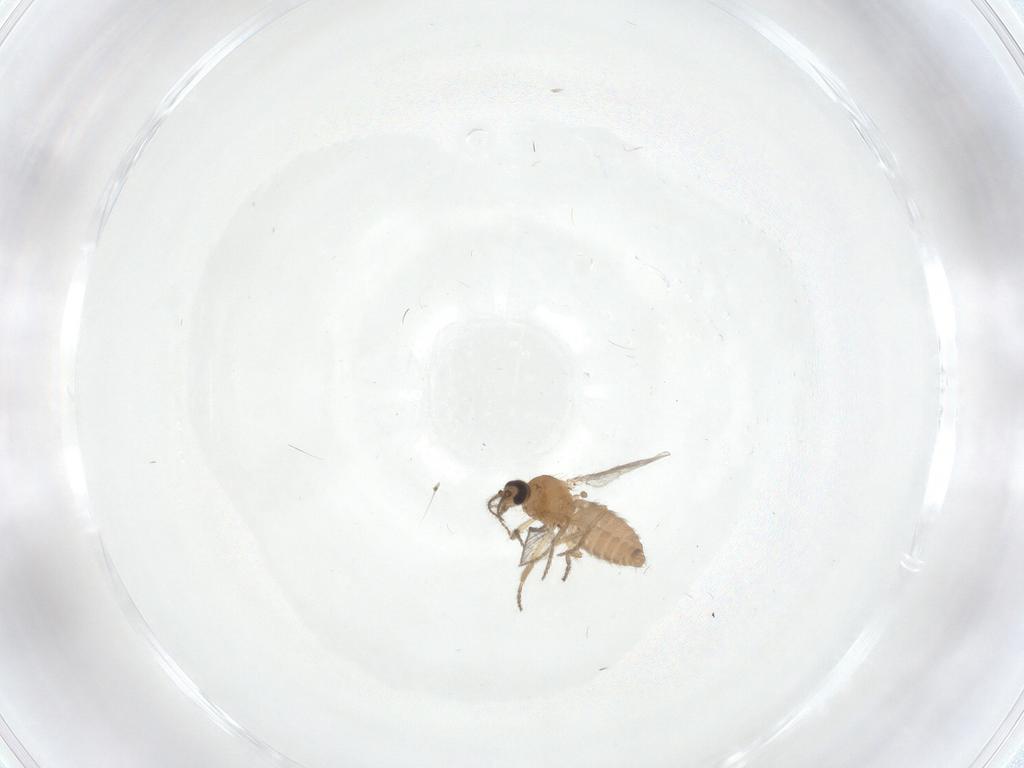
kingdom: Animalia
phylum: Arthropoda
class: Insecta
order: Diptera
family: Ceratopogonidae
